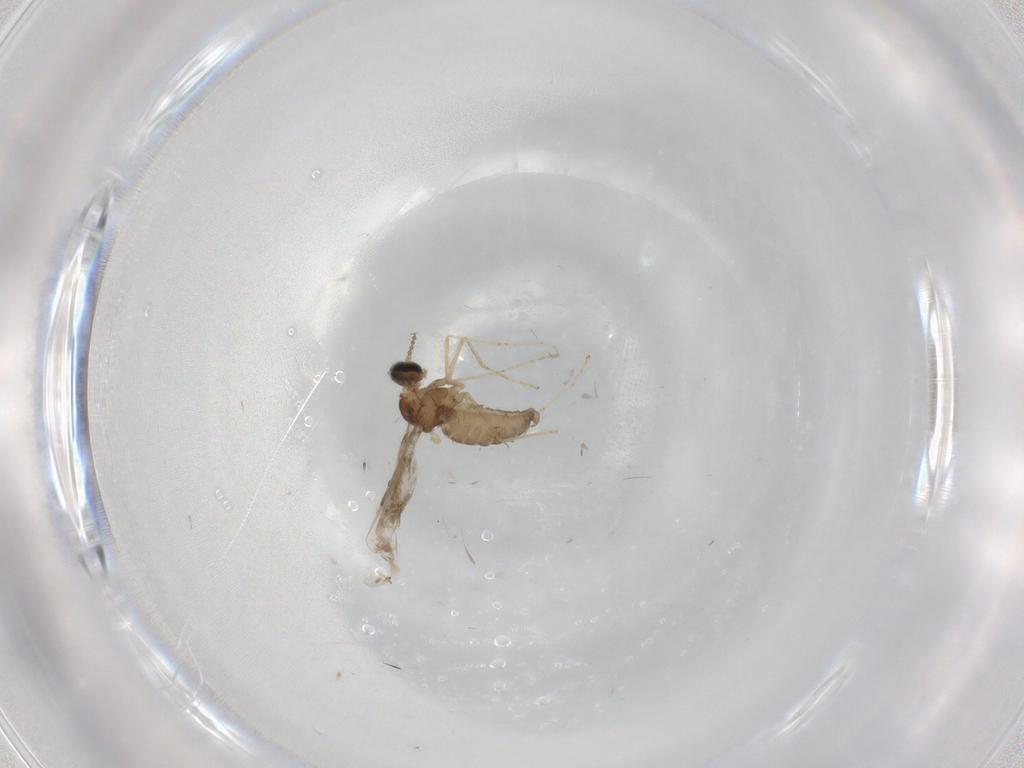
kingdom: Animalia
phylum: Arthropoda
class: Insecta
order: Diptera
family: Cecidomyiidae
